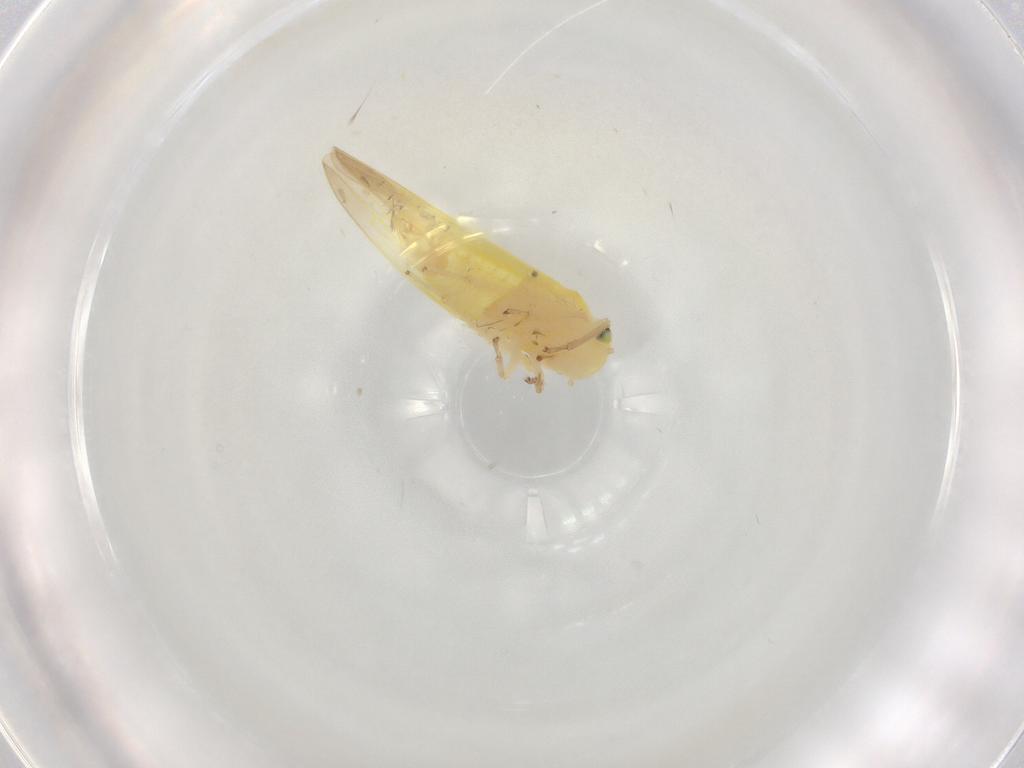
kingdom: Animalia
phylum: Arthropoda
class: Insecta
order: Hemiptera
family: Cicadellidae
